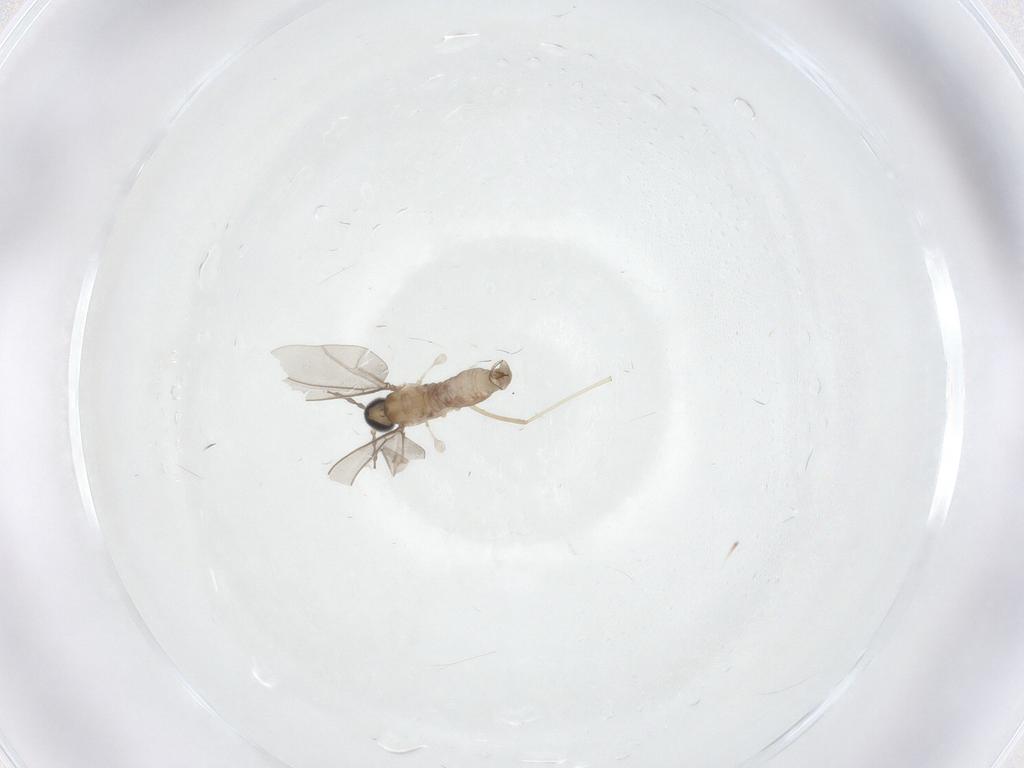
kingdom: Animalia
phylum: Arthropoda
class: Insecta
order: Diptera
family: Cecidomyiidae
